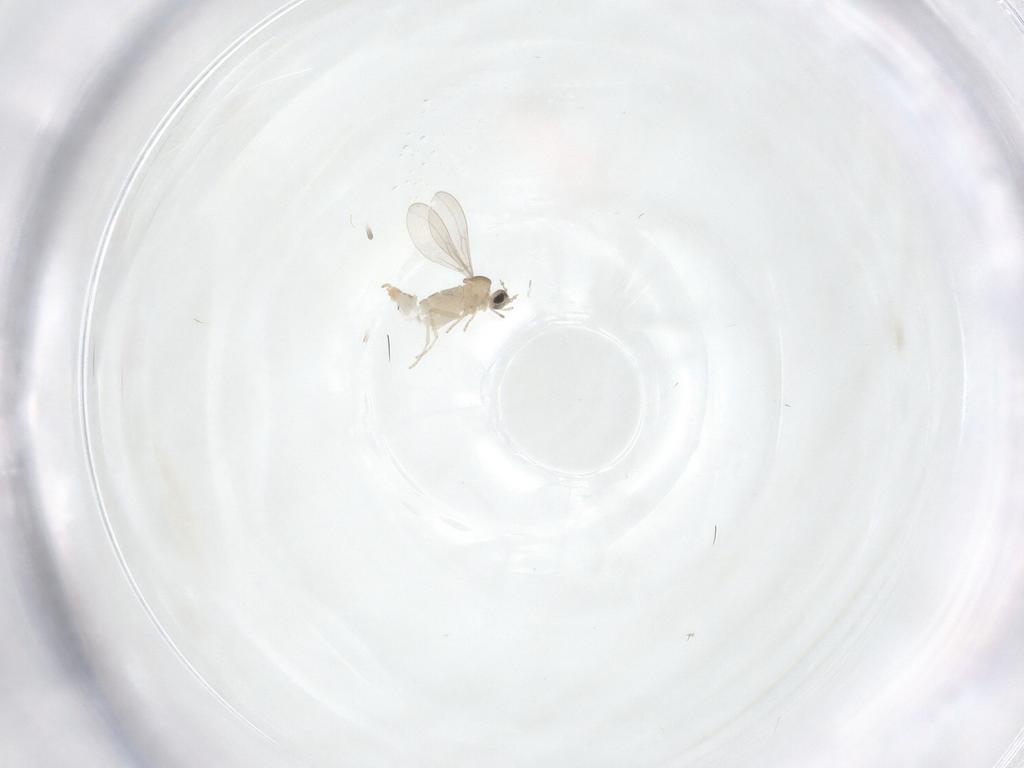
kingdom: Animalia
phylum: Arthropoda
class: Insecta
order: Diptera
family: Cecidomyiidae
